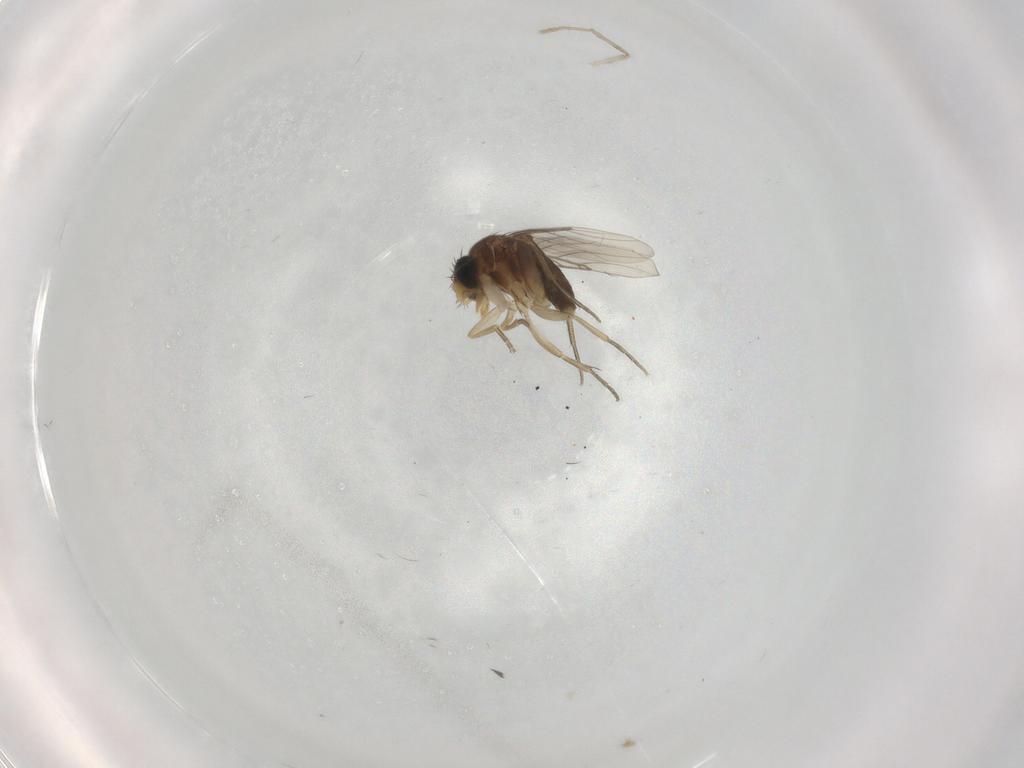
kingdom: Animalia
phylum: Arthropoda
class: Insecta
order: Diptera
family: Phoridae
